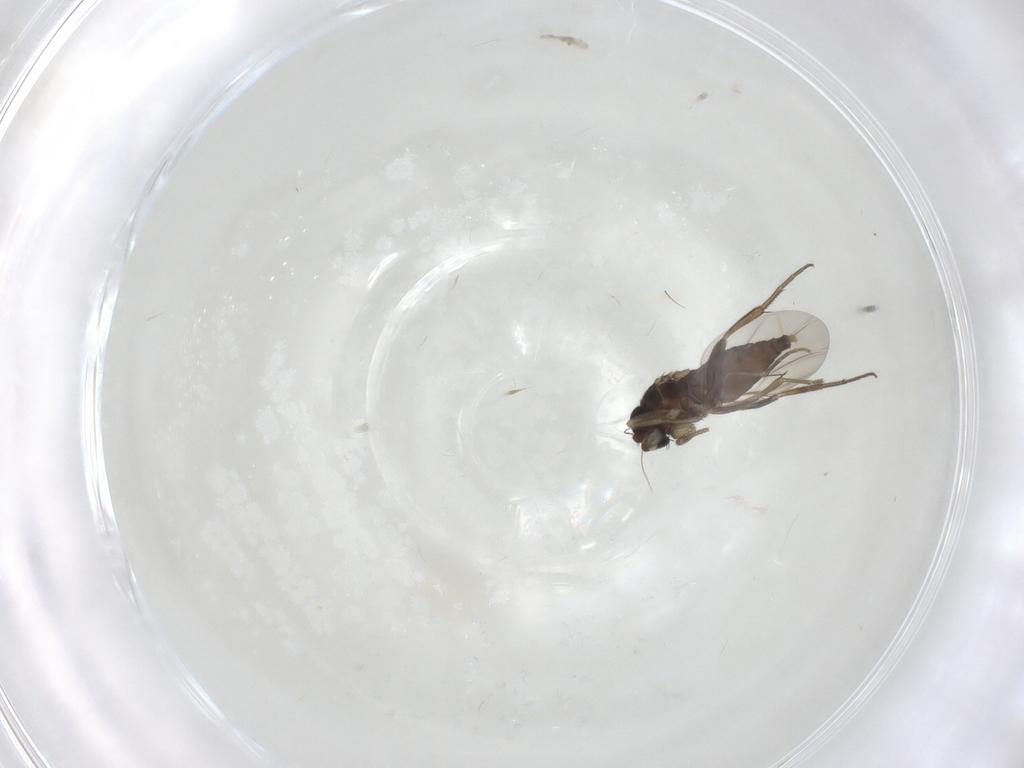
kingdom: Animalia
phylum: Arthropoda
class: Insecta
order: Diptera
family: Phoridae
